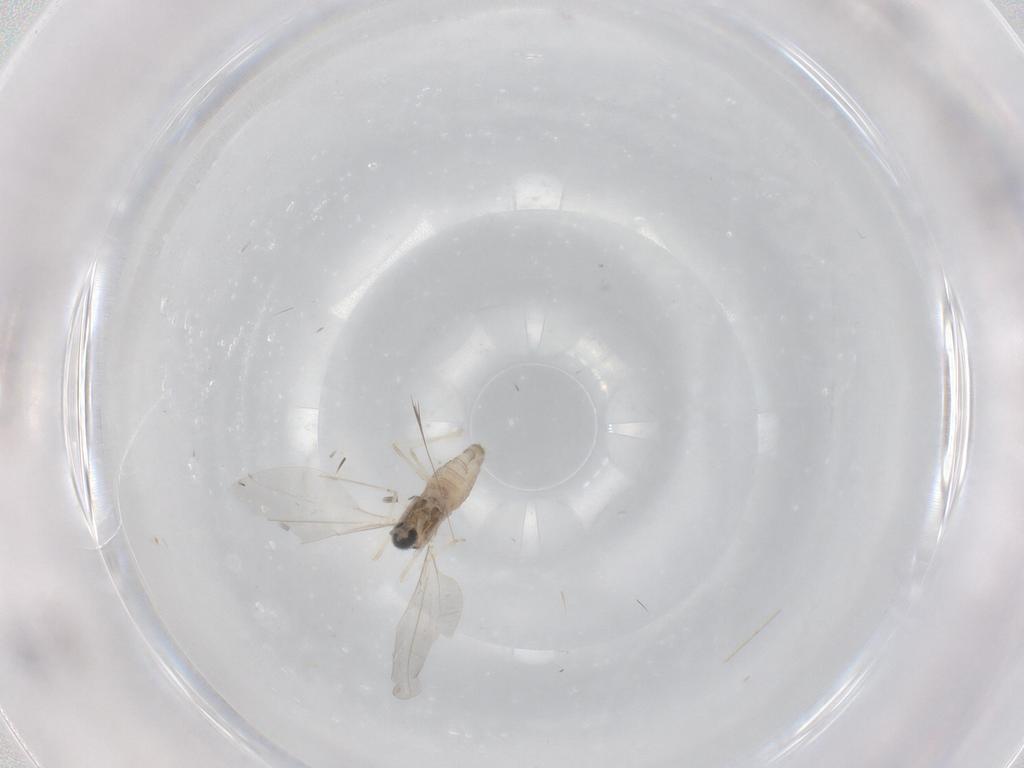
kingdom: Animalia
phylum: Arthropoda
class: Insecta
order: Diptera
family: Cecidomyiidae
